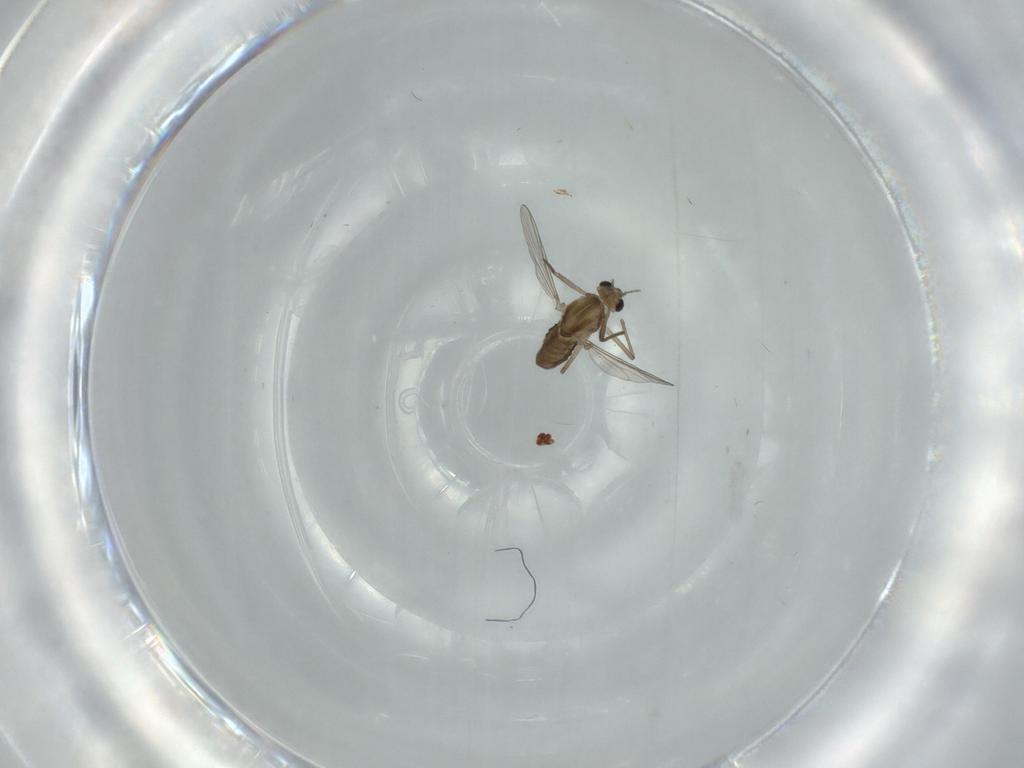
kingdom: Animalia
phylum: Arthropoda
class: Insecta
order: Diptera
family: Chironomidae
